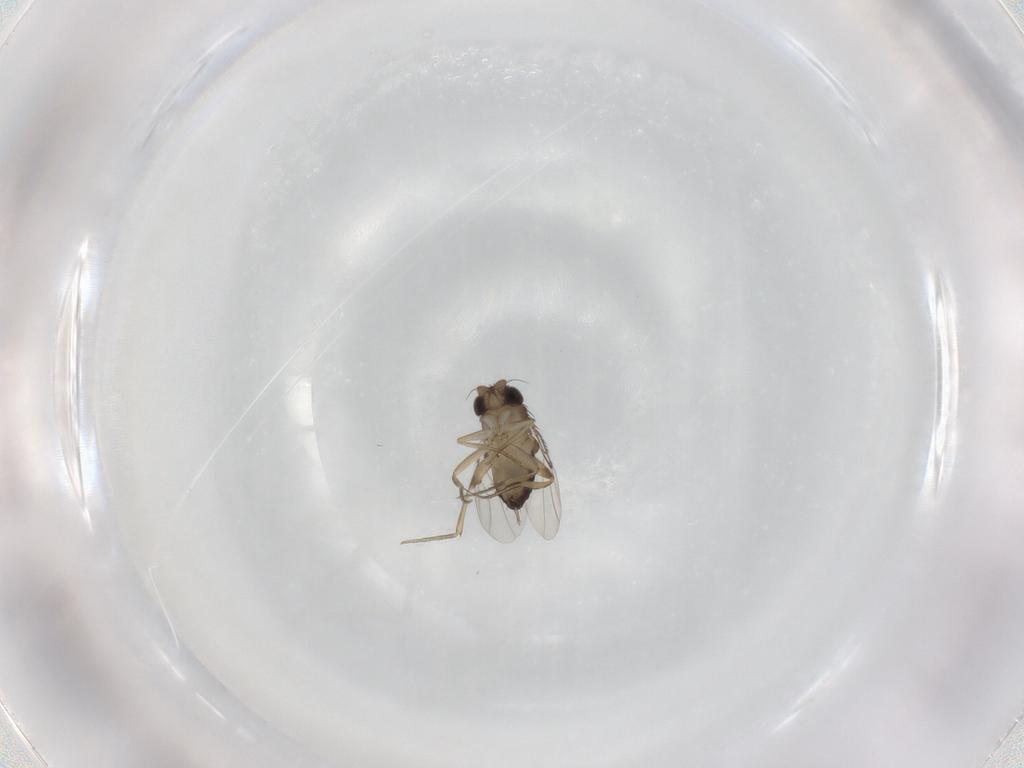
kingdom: Animalia
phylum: Arthropoda
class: Insecta
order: Diptera
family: Phoridae
